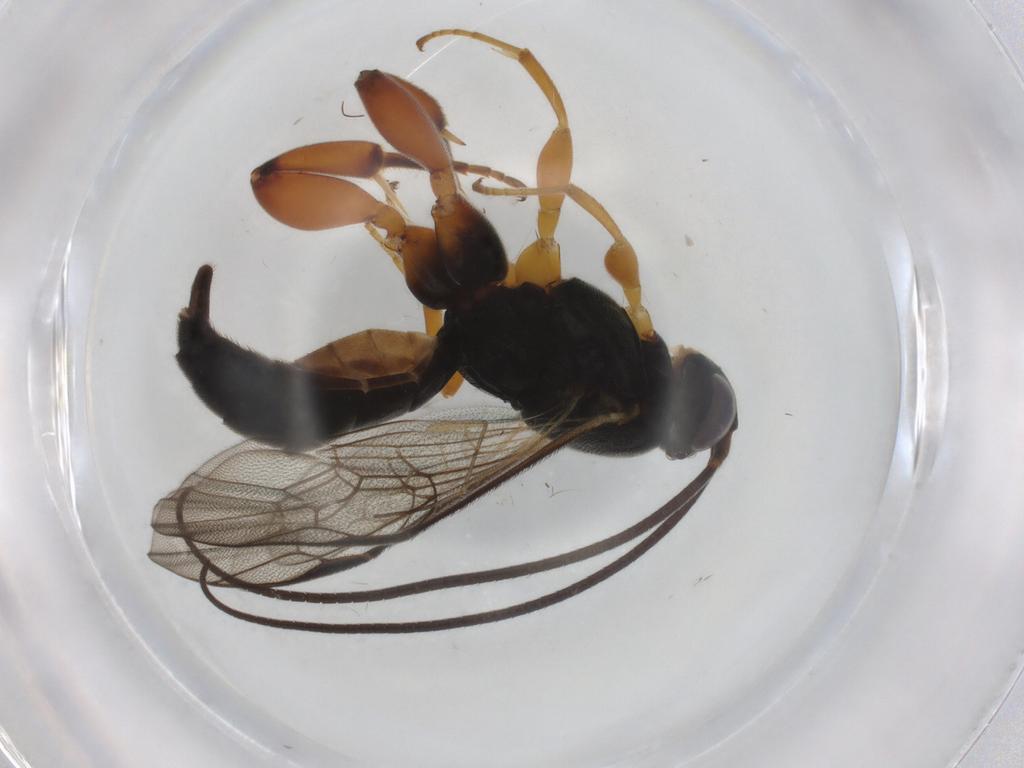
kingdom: Animalia
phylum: Arthropoda
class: Insecta
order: Hymenoptera
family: Ichneumonidae
